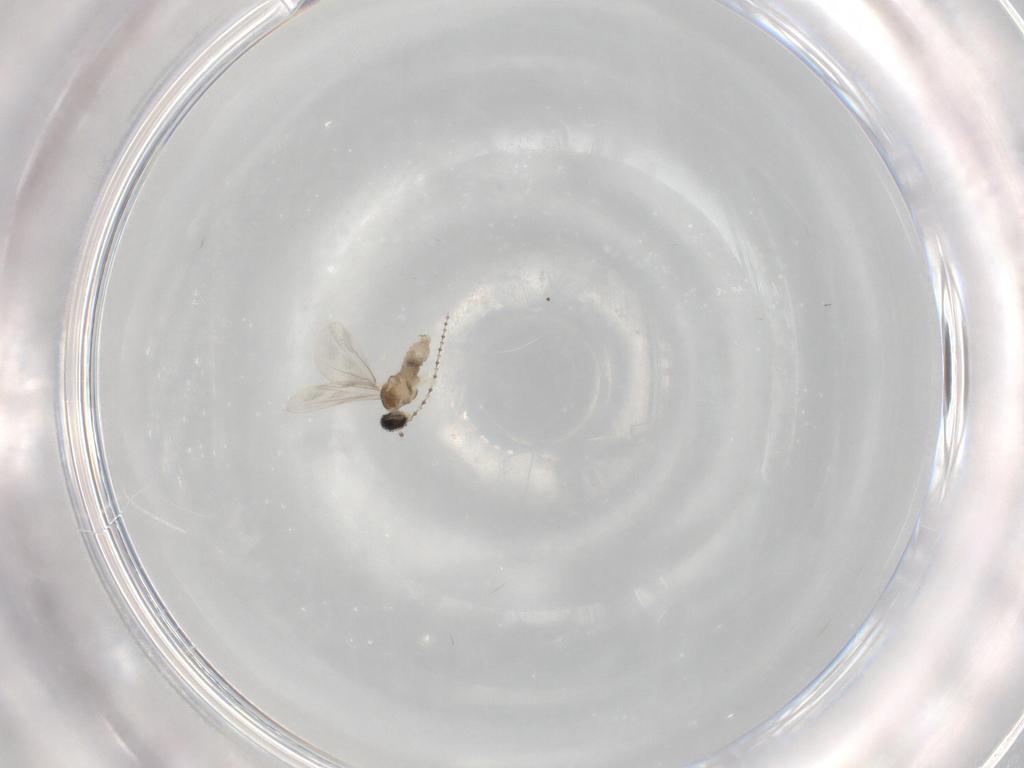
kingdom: Animalia
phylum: Arthropoda
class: Insecta
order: Diptera
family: Cecidomyiidae
